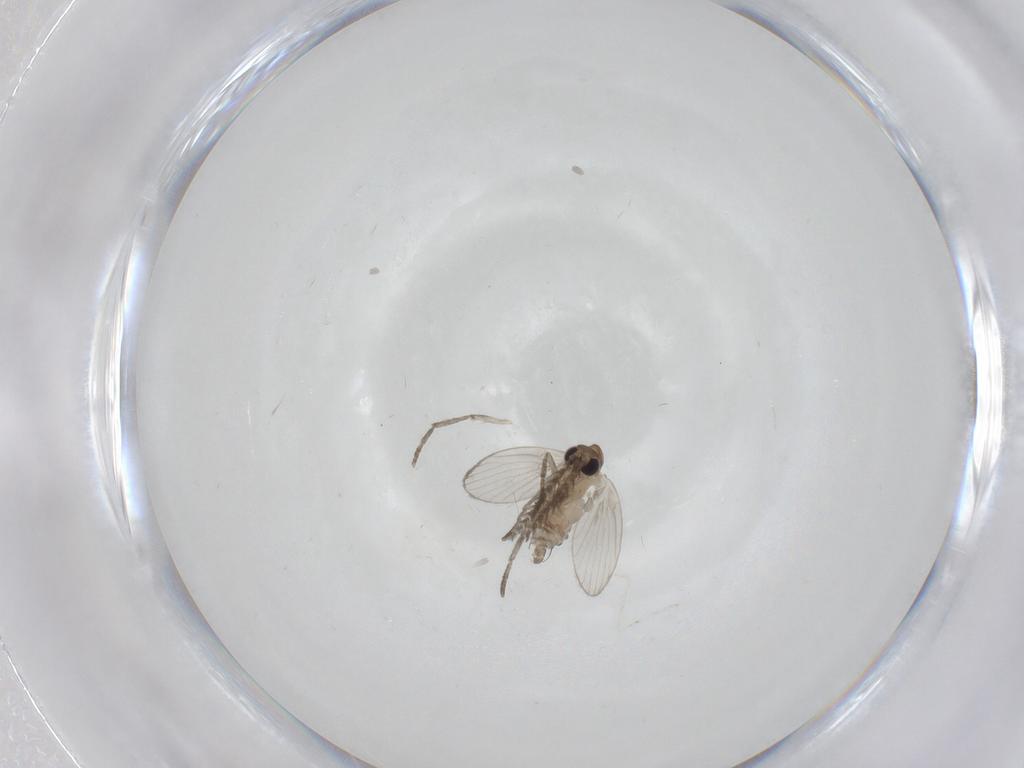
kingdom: Animalia
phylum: Arthropoda
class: Insecta
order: Diptera
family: Phoridae
